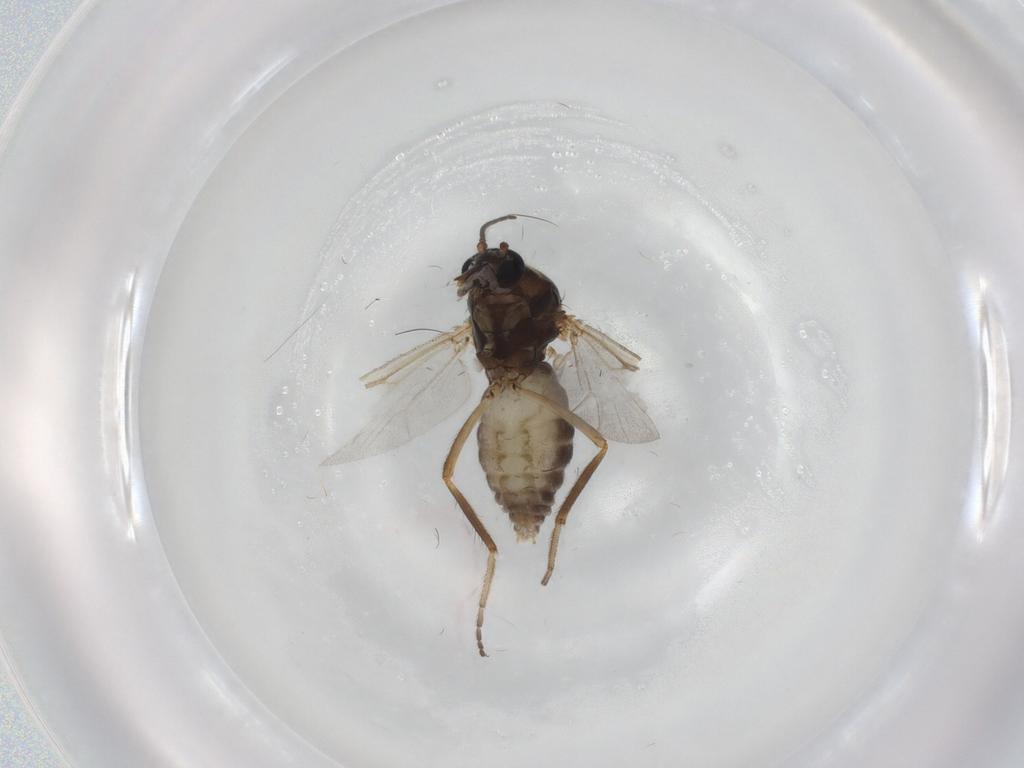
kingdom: Animalia
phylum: Arthropoda
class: Insecta
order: Diptera
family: Ceratopogonidae
